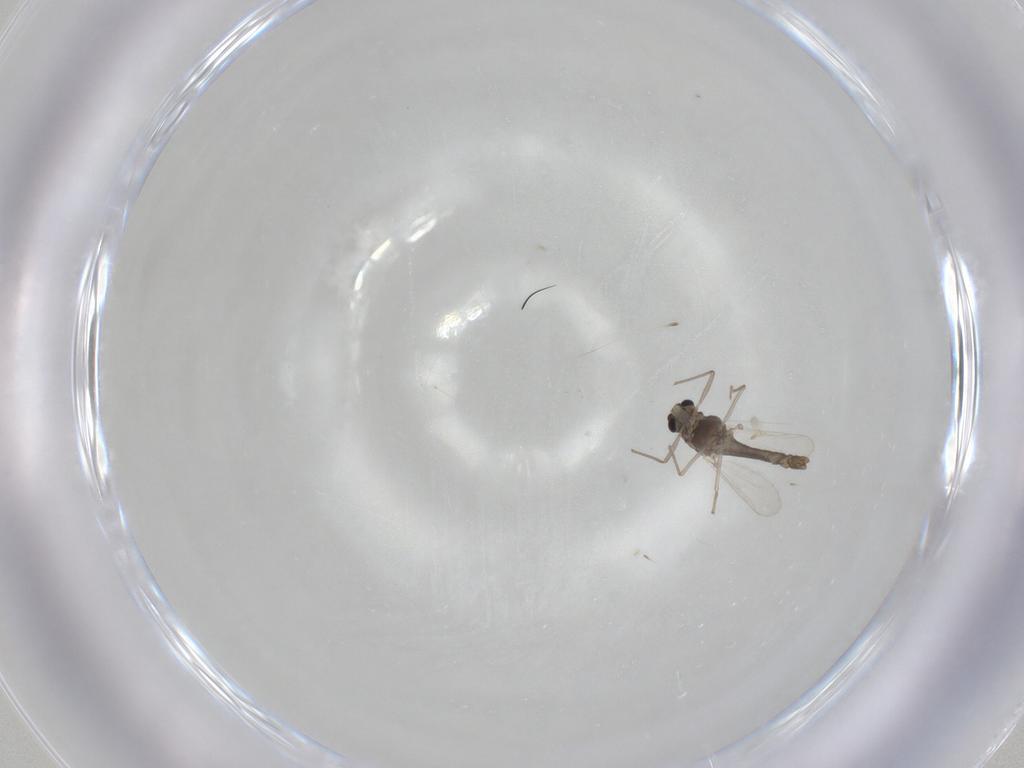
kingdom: Animalia
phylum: Arthropoda
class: Insecta
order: Diptera
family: Chironomidae
